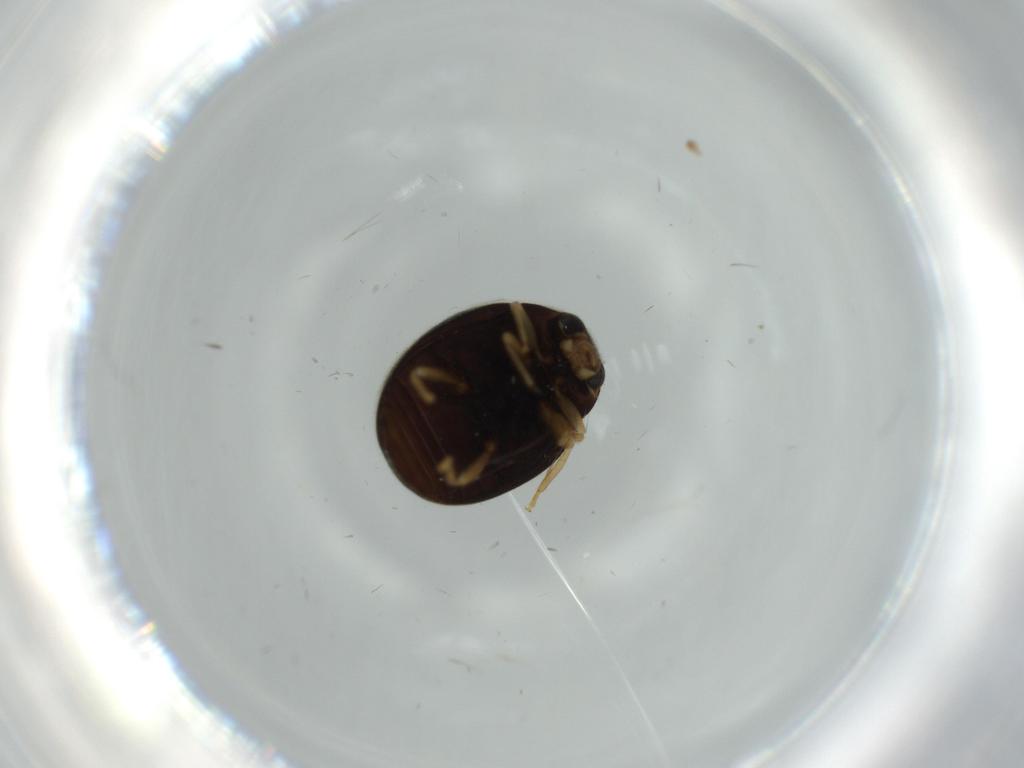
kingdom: Animalia
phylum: Arthropoda
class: Insecta
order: Coleoptera
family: Coccinellidae
